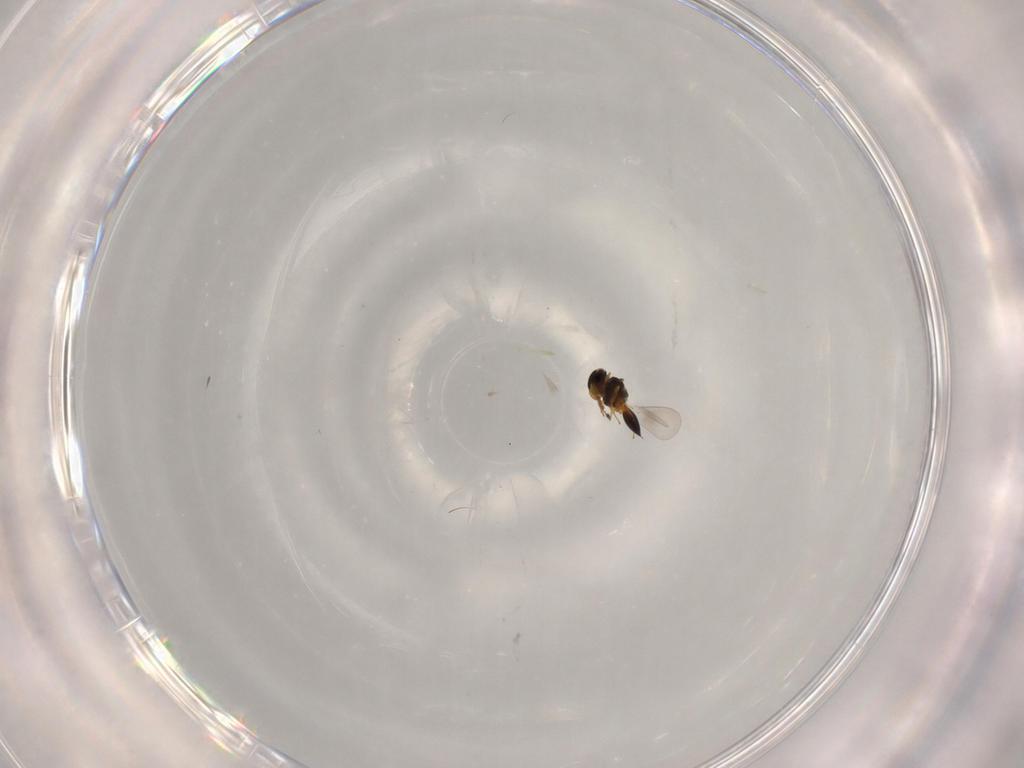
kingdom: Animalia
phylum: Arthropoda
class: Insecta
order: Hymenoptera
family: Platygastridae
